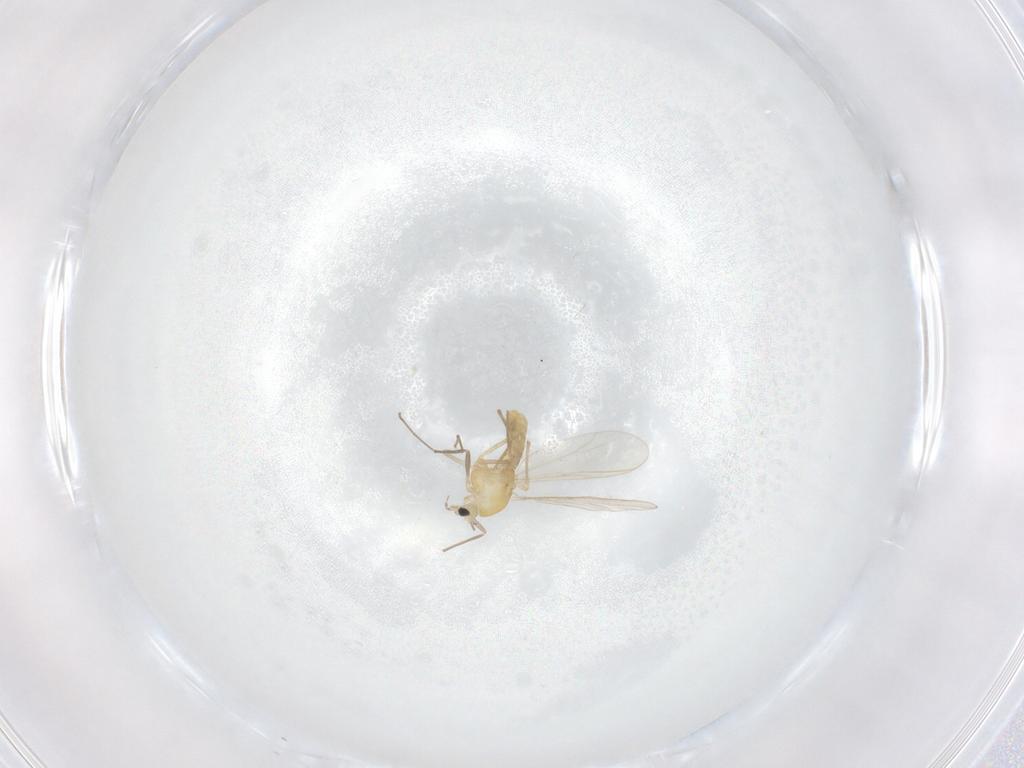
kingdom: Animalia
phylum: Arthropoda
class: Insecta
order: Diptera
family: Chironomidae
